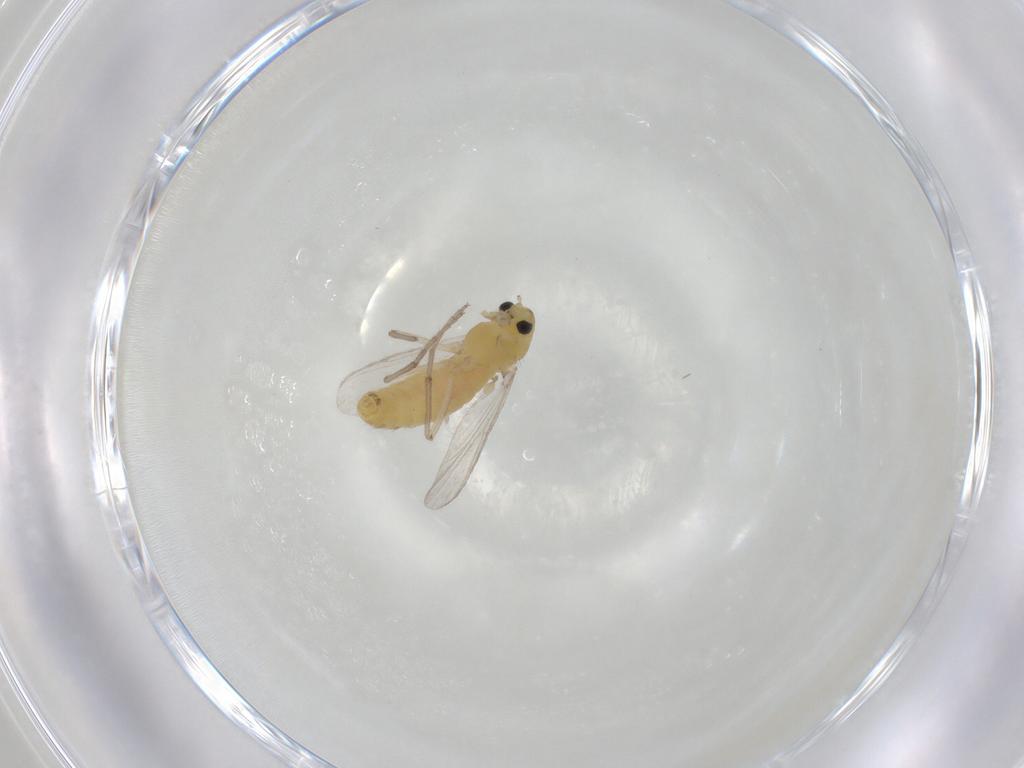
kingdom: Animalia
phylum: Arthropoda
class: Insecta
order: Diptera
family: Chironomidae
